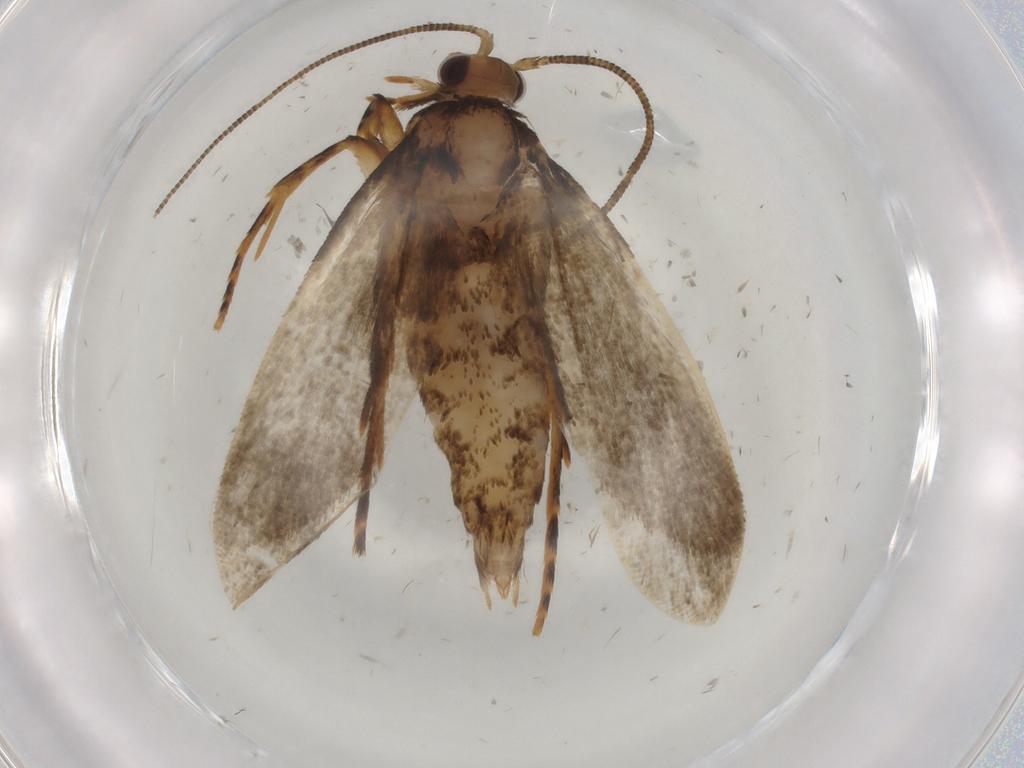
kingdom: Animalia
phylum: Arthropoda
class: Insecta
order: Lepidoptera
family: Tineidae
